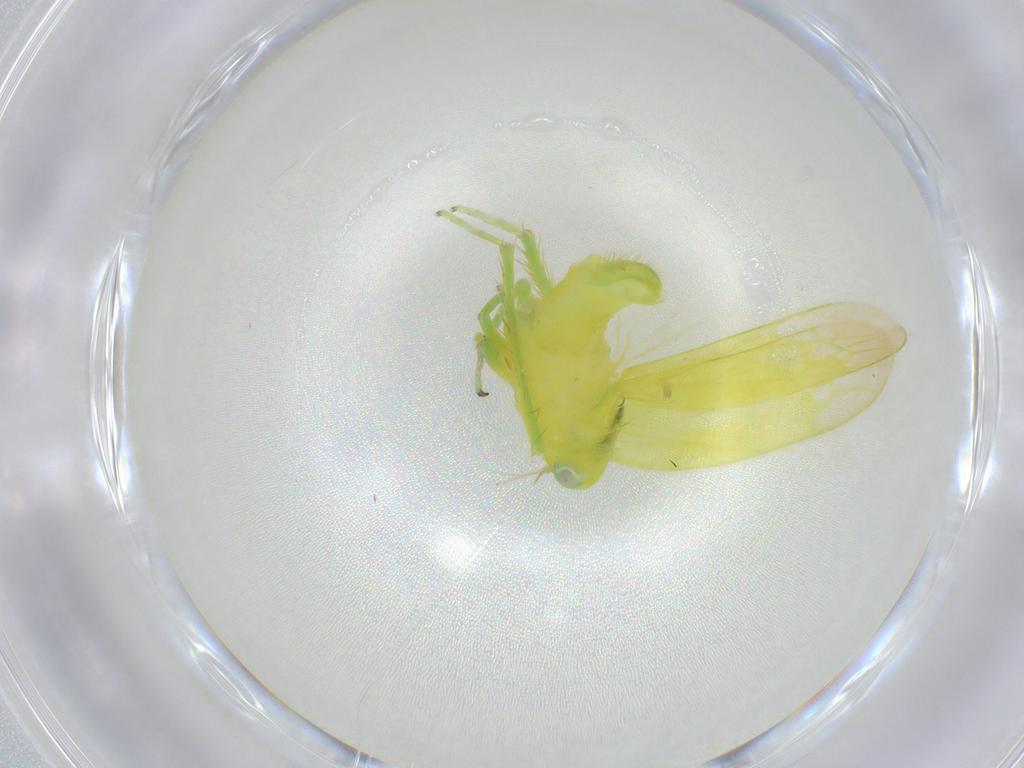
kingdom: Animalia
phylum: Arthropoda
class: Insecta
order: Hemiptera
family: Cicadellidae
